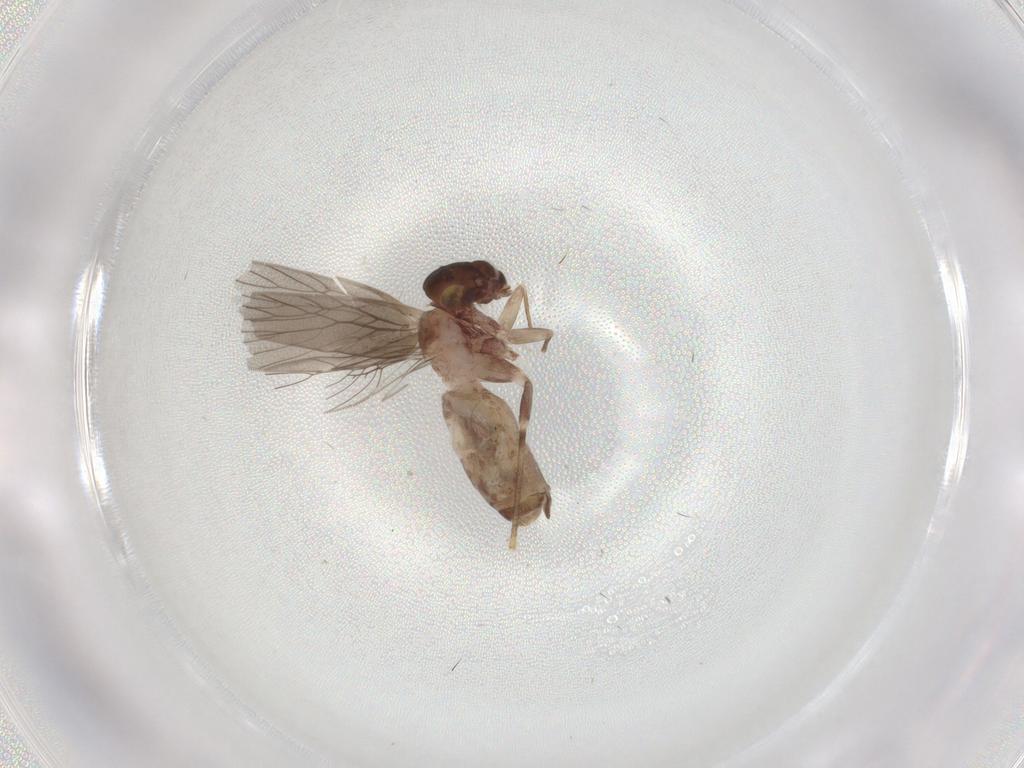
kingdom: Animalia
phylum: Arthropoda
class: Insecta
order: Psocodea
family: Lepidopsocidae
